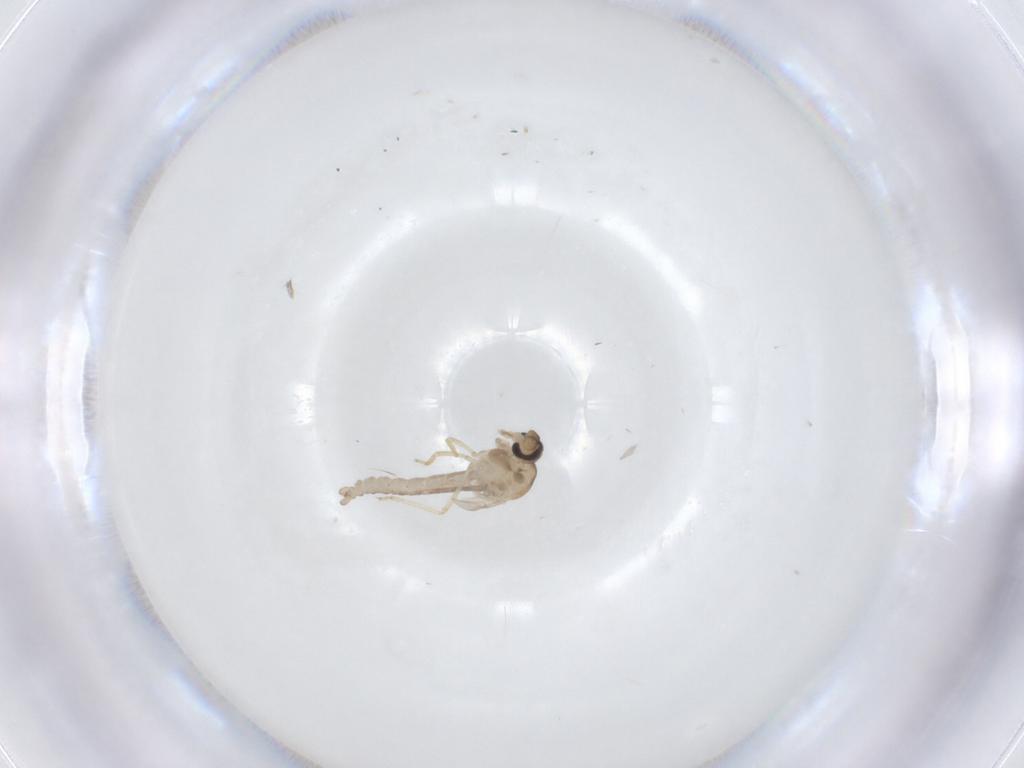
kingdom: Animalia
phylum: Arthropoda
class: Insecta
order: Diptera
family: Ceratopogonidae
